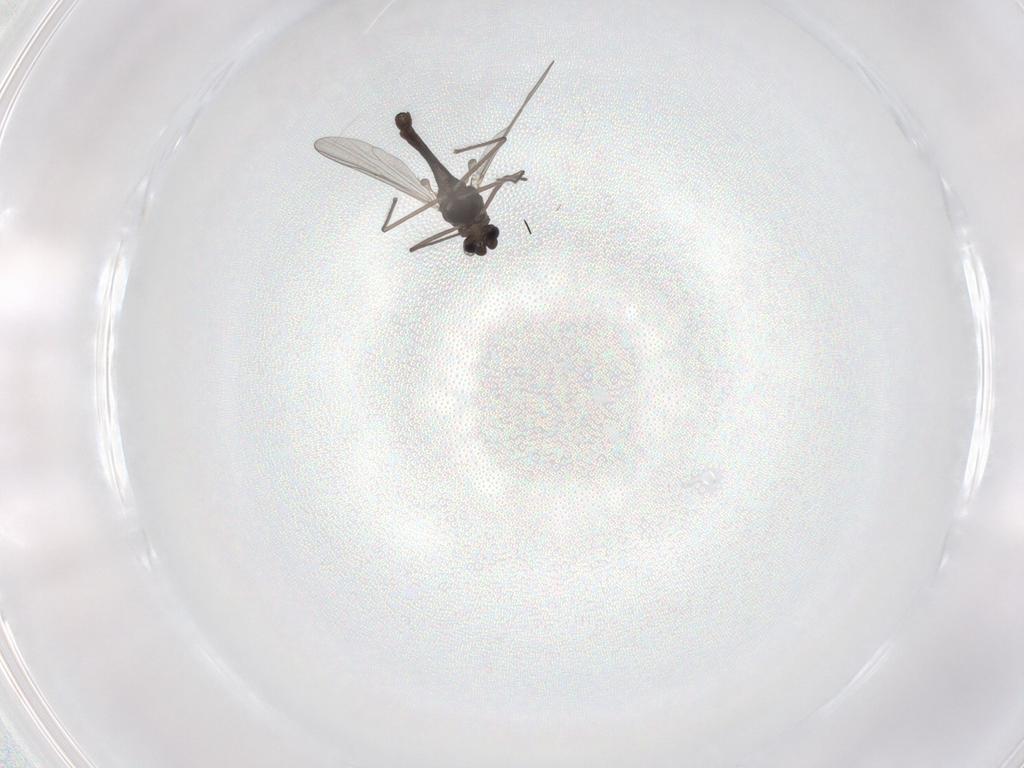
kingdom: Animalia
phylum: Arthropoda
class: Insecta
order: Diptera
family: Chironomidae
